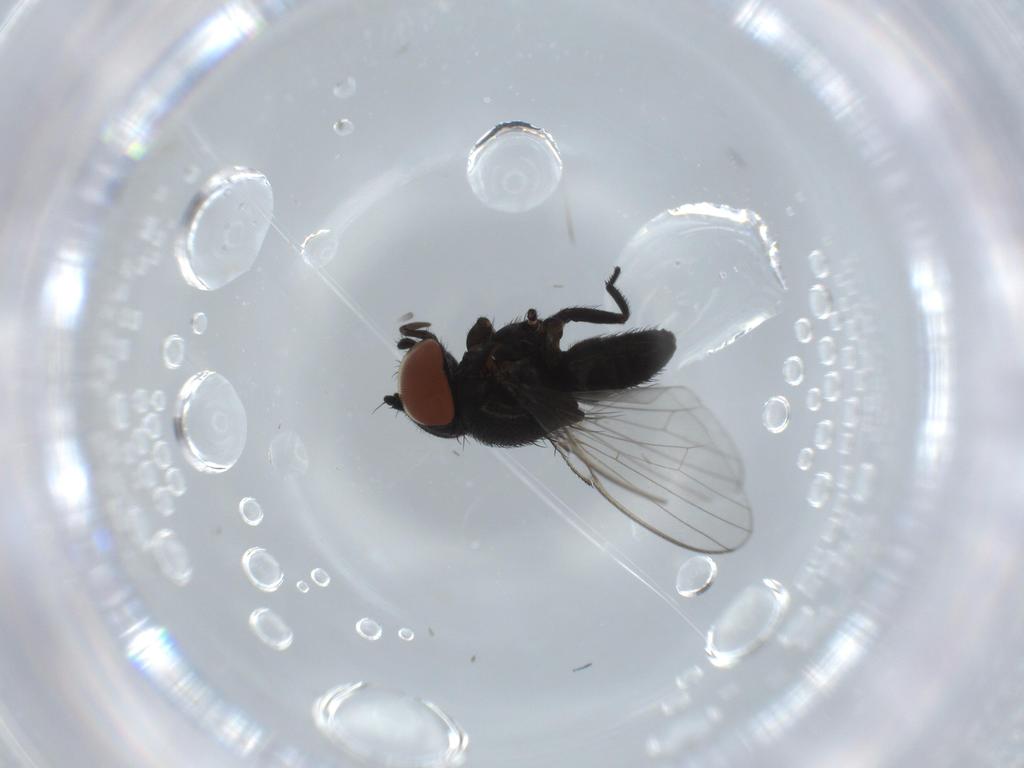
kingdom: Animalia
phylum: Arthropoda
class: Insecta
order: Diptera
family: Milichiidae
